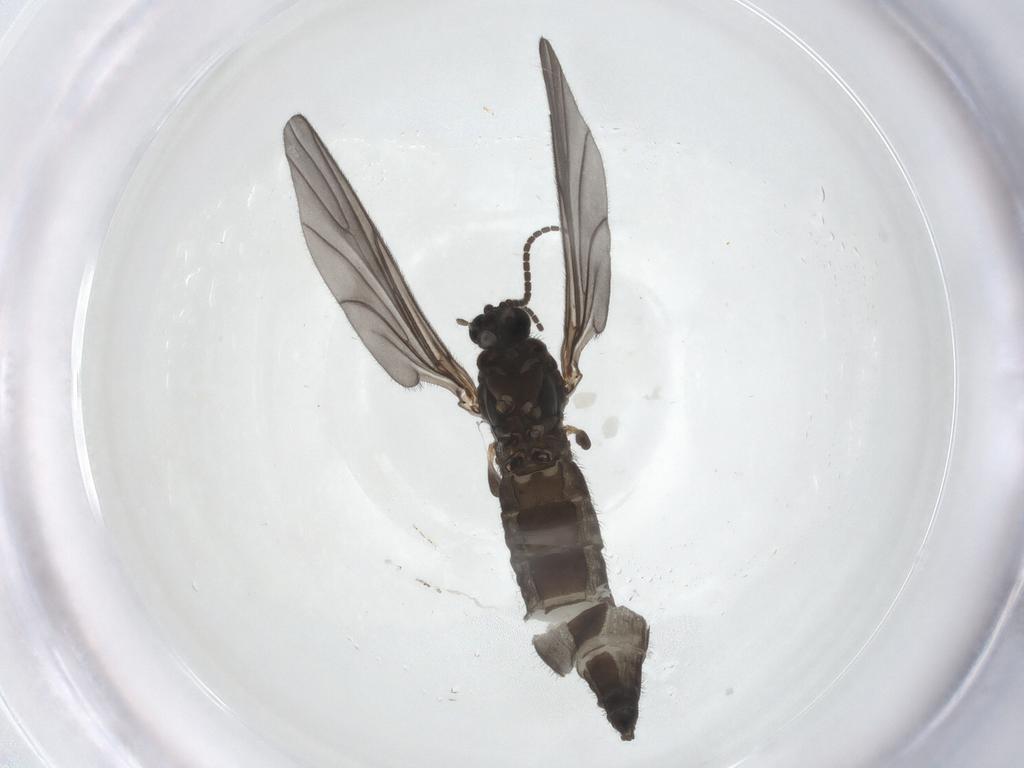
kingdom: Animalia
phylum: Arthropoda
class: Insecta
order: Diptera
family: Sciaridae
